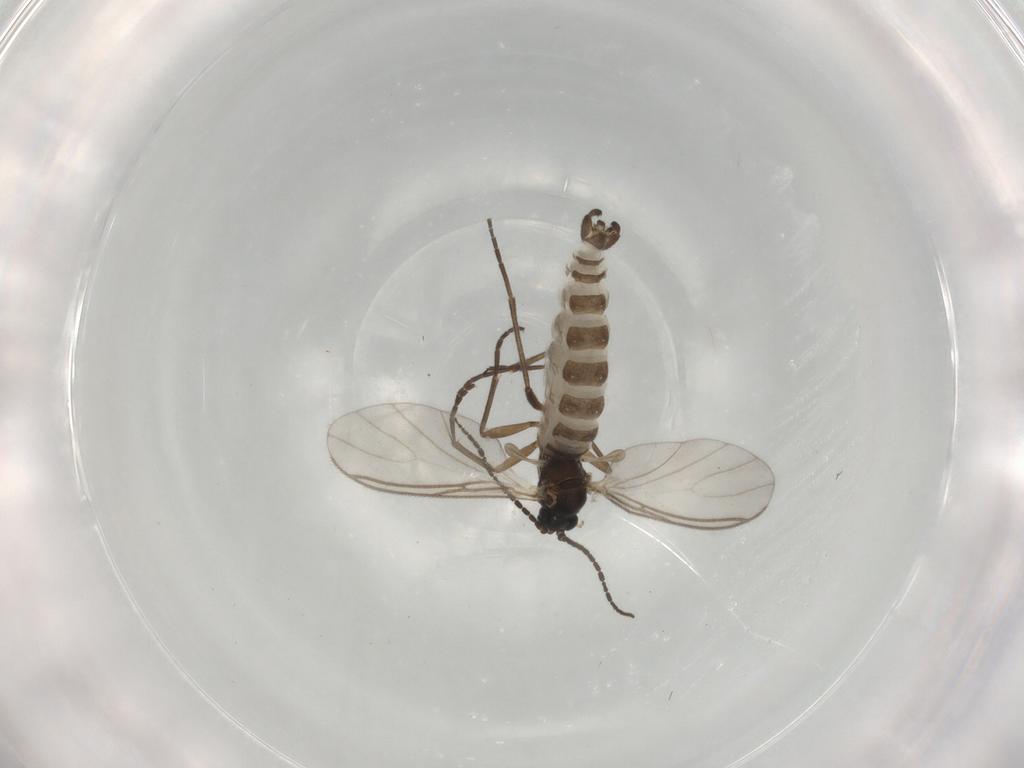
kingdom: Animalia
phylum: Arthropoda
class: Insecta
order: Diptera
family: Sciaridae
